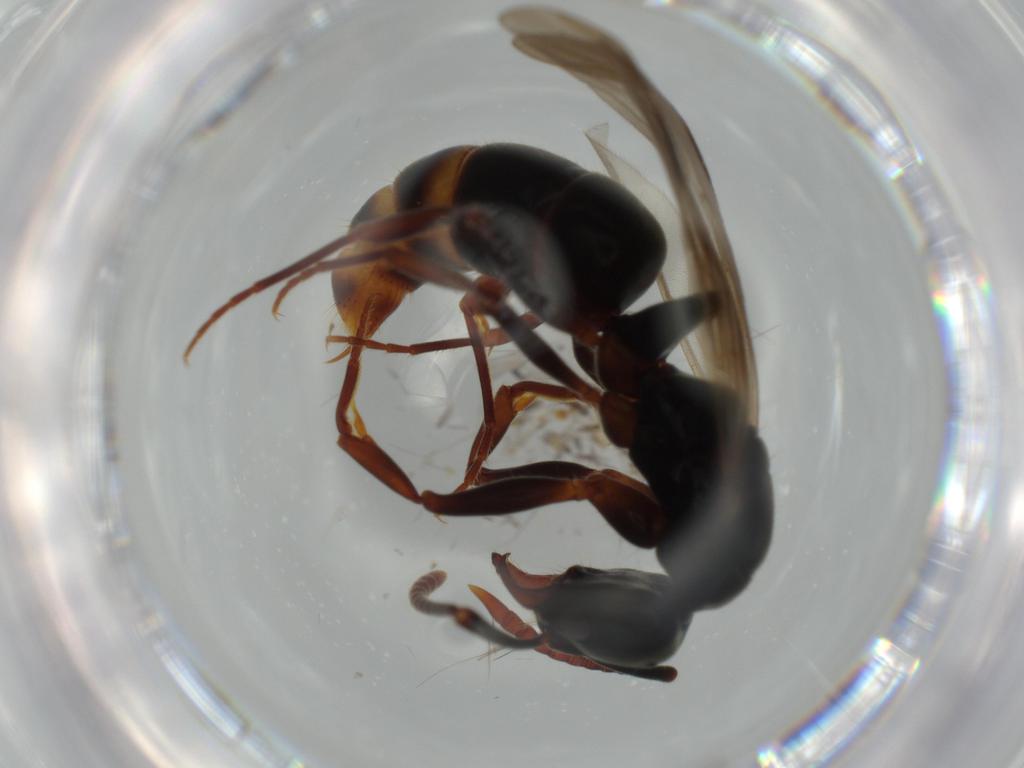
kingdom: Animalia
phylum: Arthropoda
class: Insecta
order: Hymenoptera
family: Formicidae
